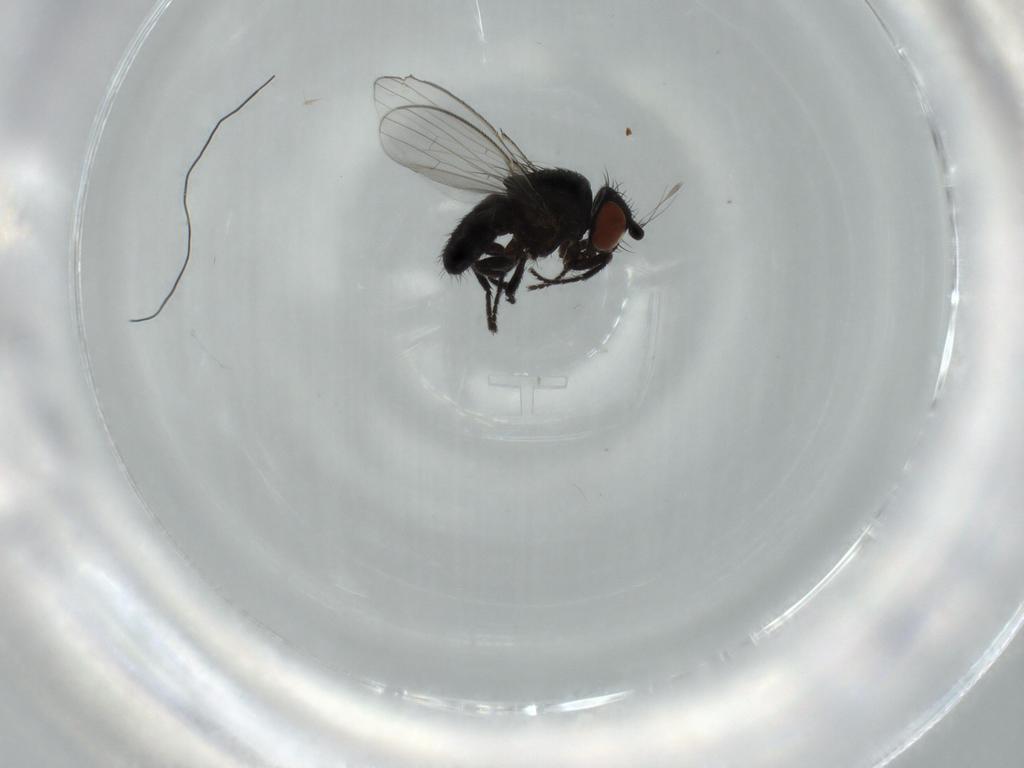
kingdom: Animalia
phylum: Arthropoda
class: Insecta
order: Diptera
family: Milichiidae
